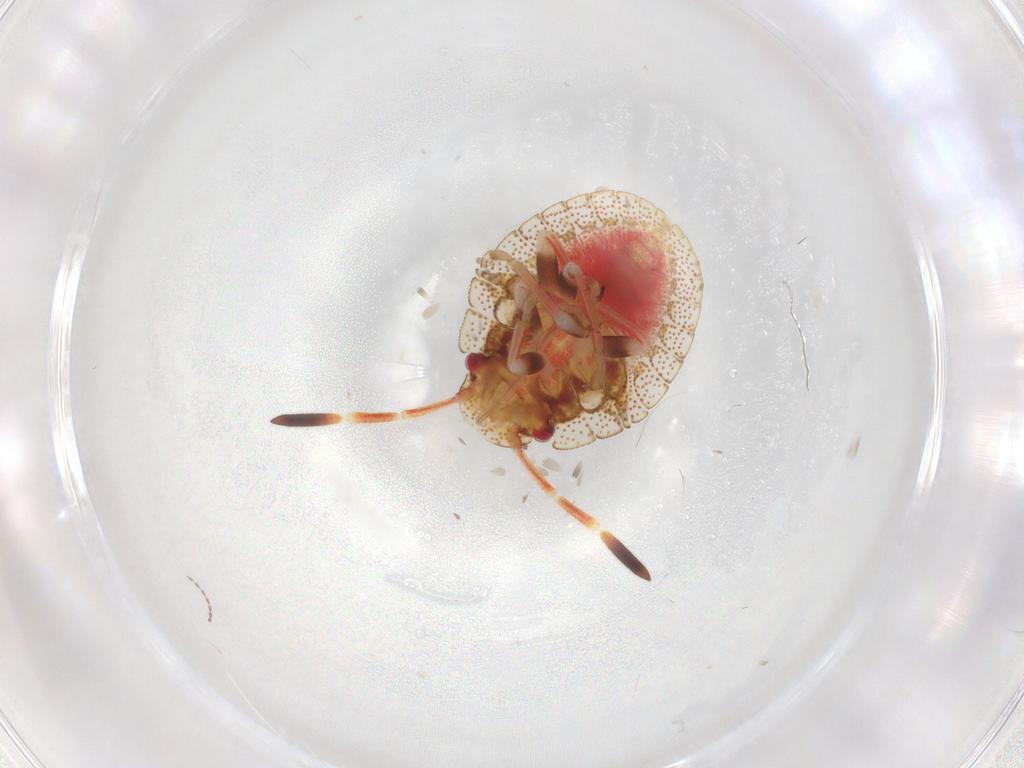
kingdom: Animalia
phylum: Arthropoda
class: Insecta
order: Hemiptera
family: Pentatomidae
